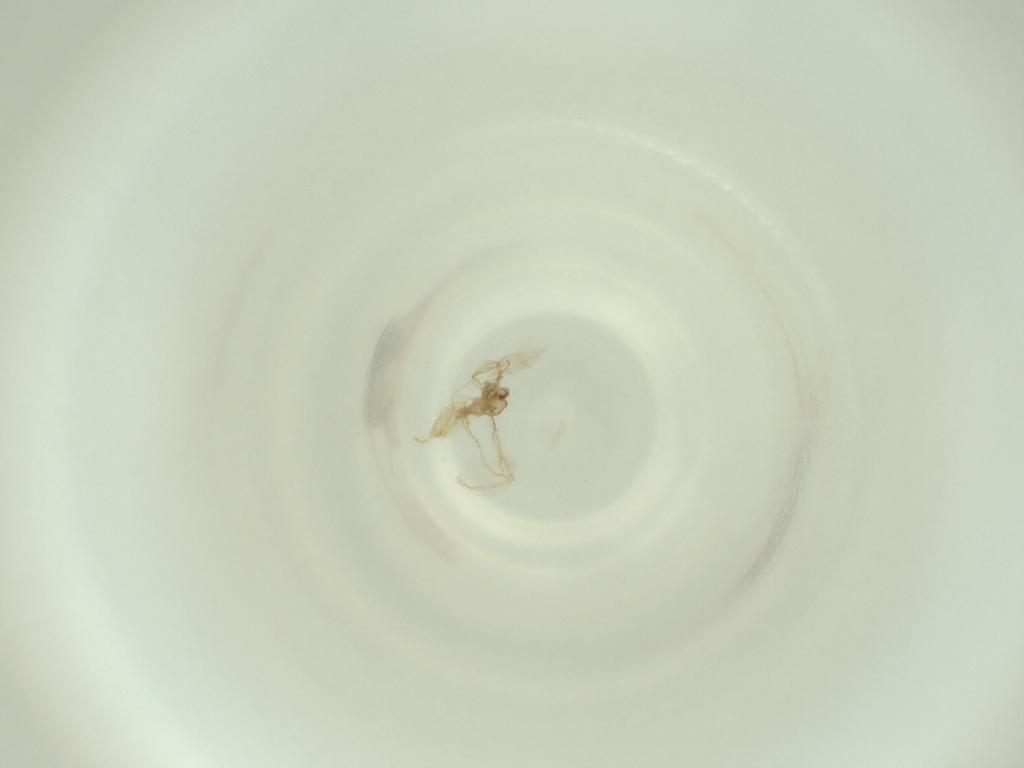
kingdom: Animalia
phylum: Arthropoda
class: Insecta
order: Diptera
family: Cecidomyiidae
